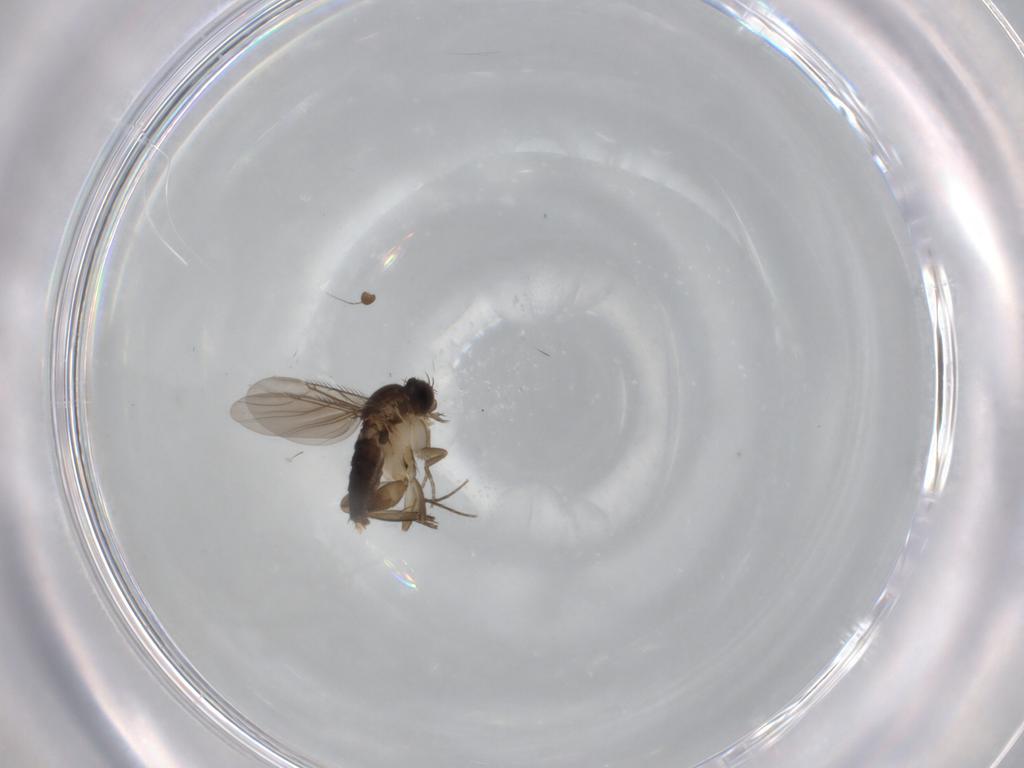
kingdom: Animalia
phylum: Arthropoda
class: Insecta
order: Diptera
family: Phoridae
